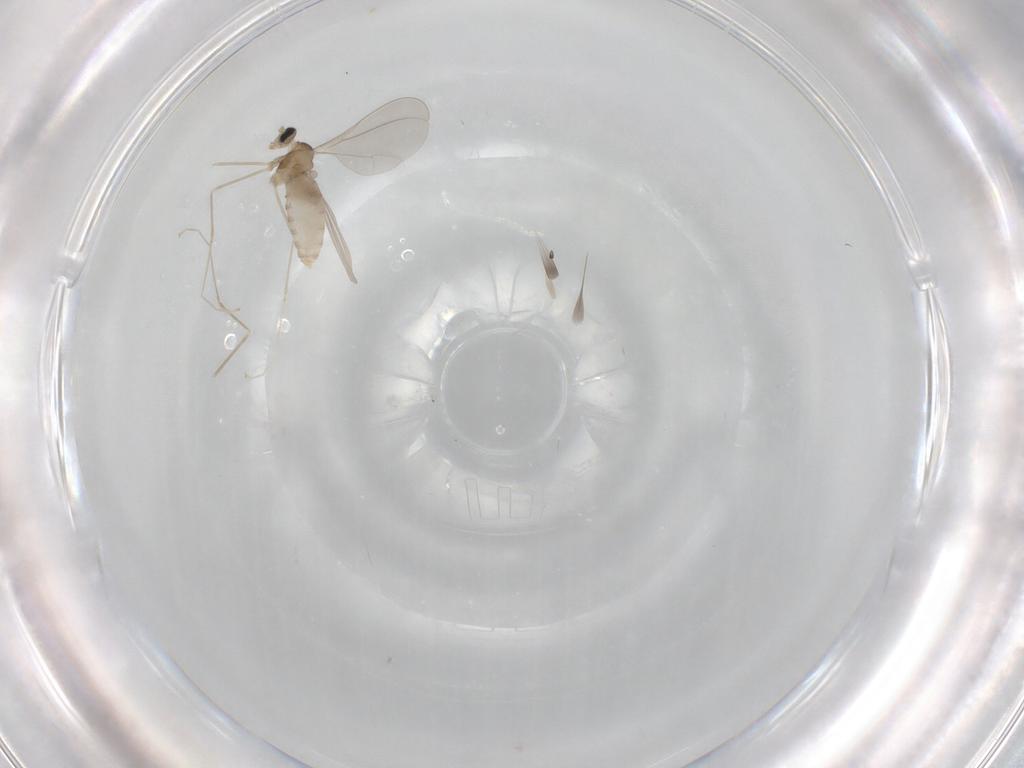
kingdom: Animalia
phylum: Arthropoda
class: Insecta
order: Diptera
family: Cecidomyiidae
